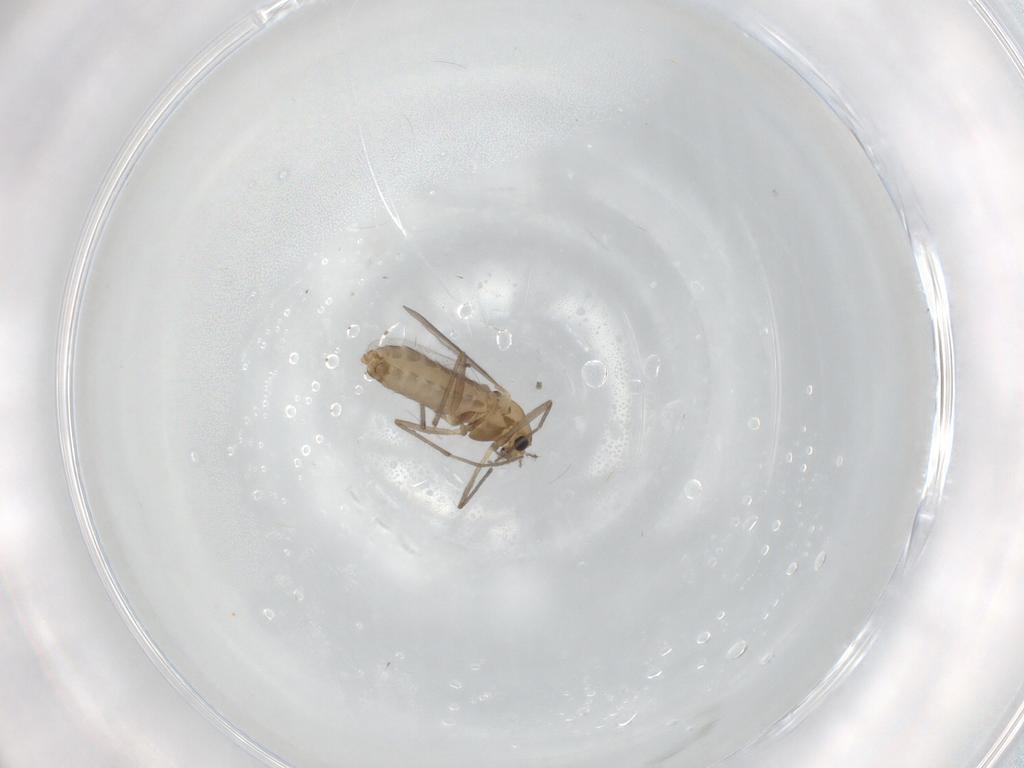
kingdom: Animalia
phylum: Arthropoda
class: Insecta
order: Diptera
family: Chironomidae
